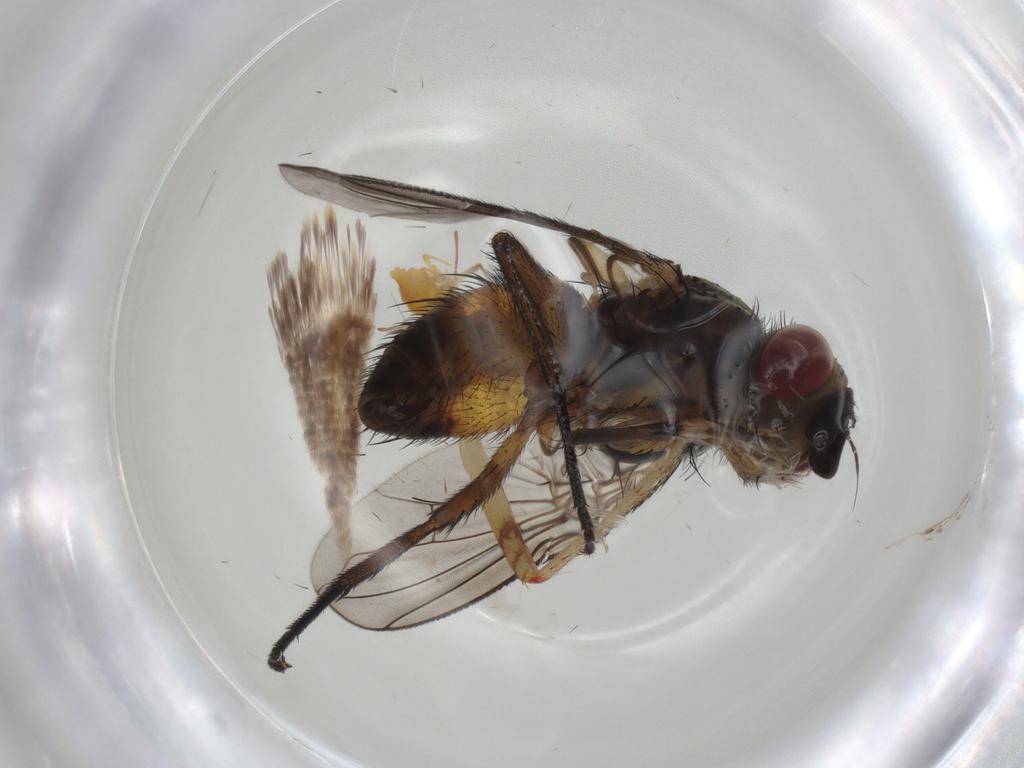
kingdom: Animalia
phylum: Arthropoda
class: Insecta
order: Diptera
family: Tachinidae
